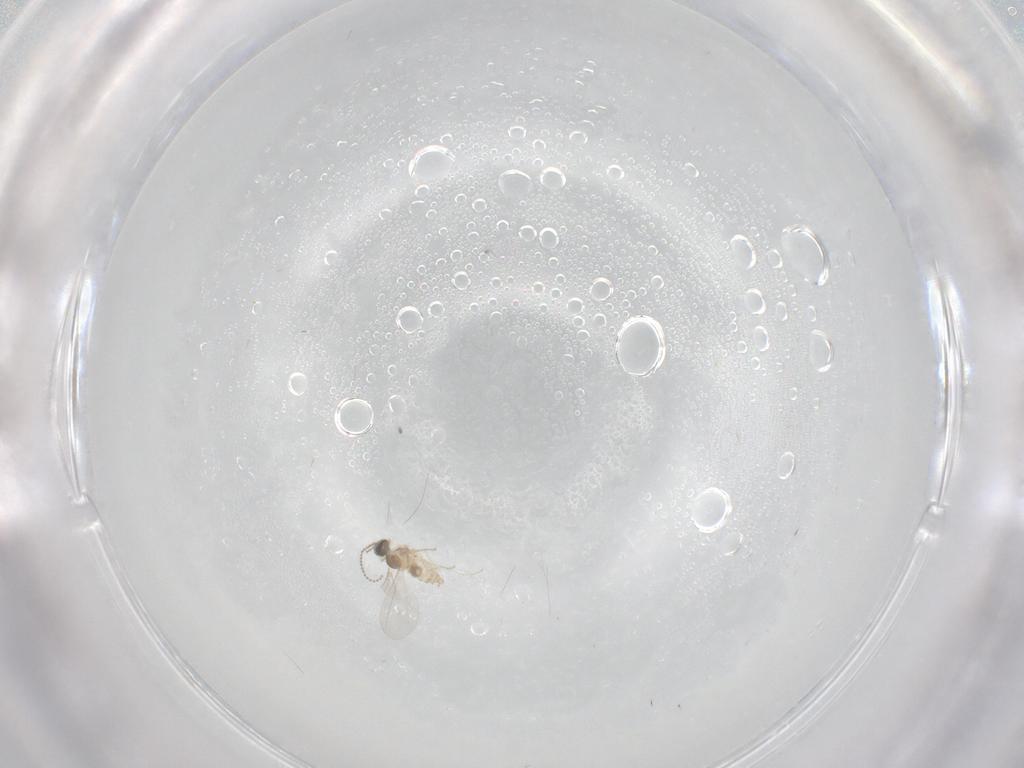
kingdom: Animalia
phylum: Arthropoda
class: Insecta
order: Diptera
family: Cecidomyiidae
